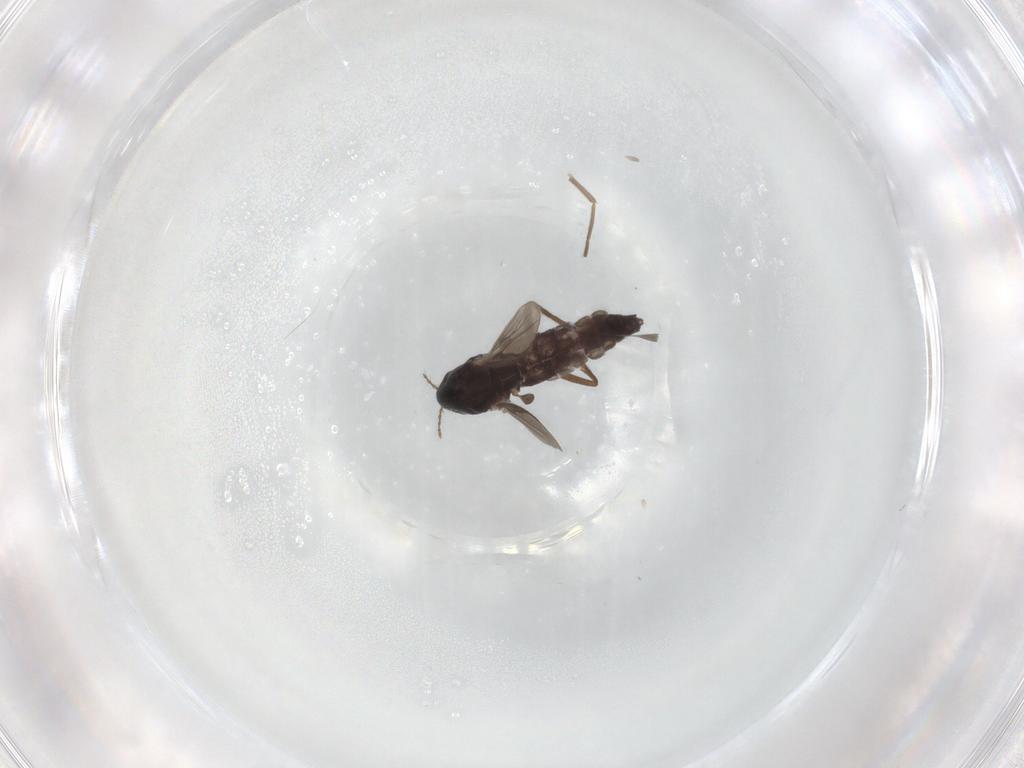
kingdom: Animalia
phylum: Arthropoda
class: Insecta
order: Diptera
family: Chironomidae
